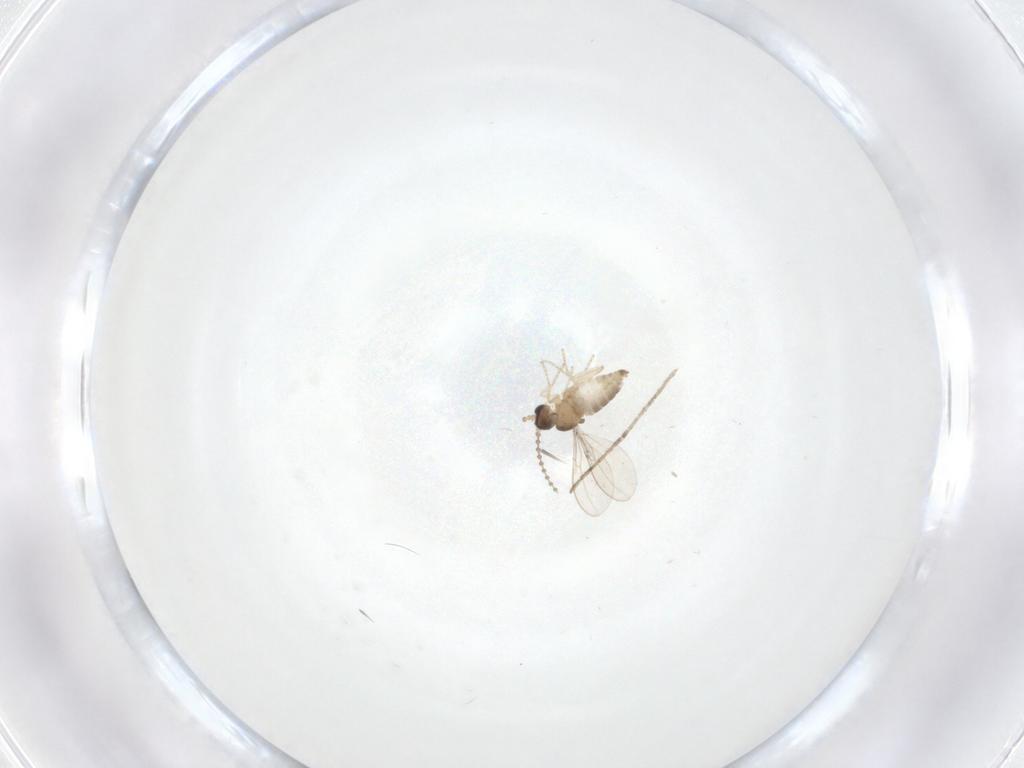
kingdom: Animalia
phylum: Arthropoda
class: Insecta
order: Diptera
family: Cecidomyiidae
